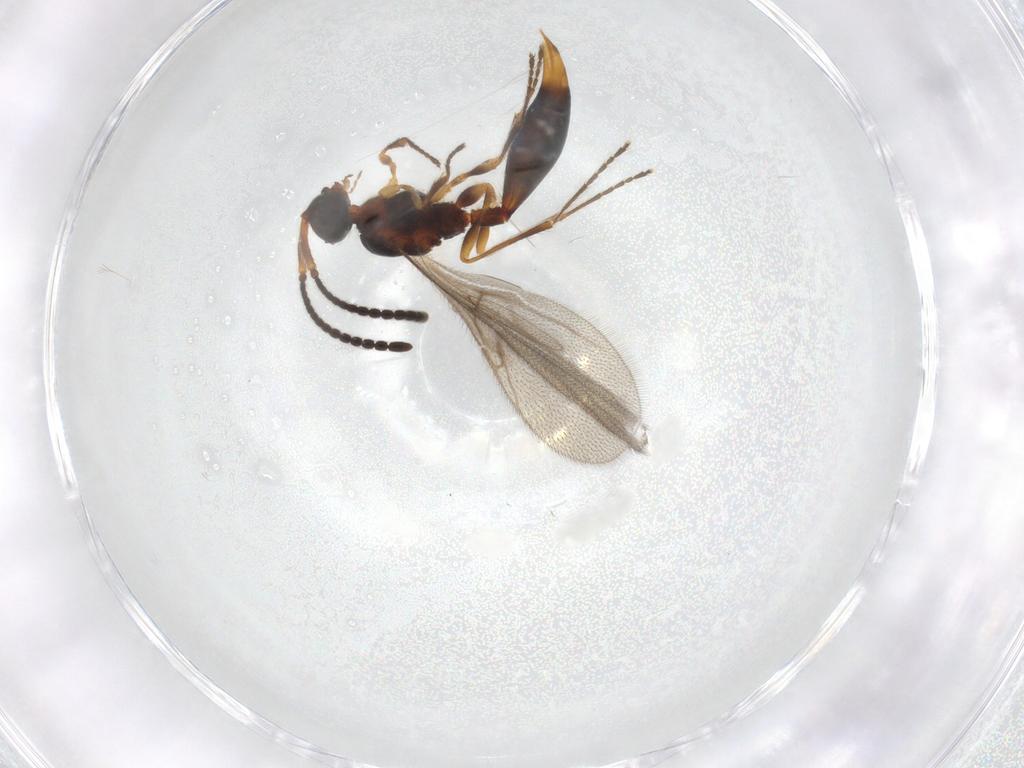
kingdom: Animalia
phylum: Arthropoda
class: Insecta
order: Hymenoptera
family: Diapriidae
